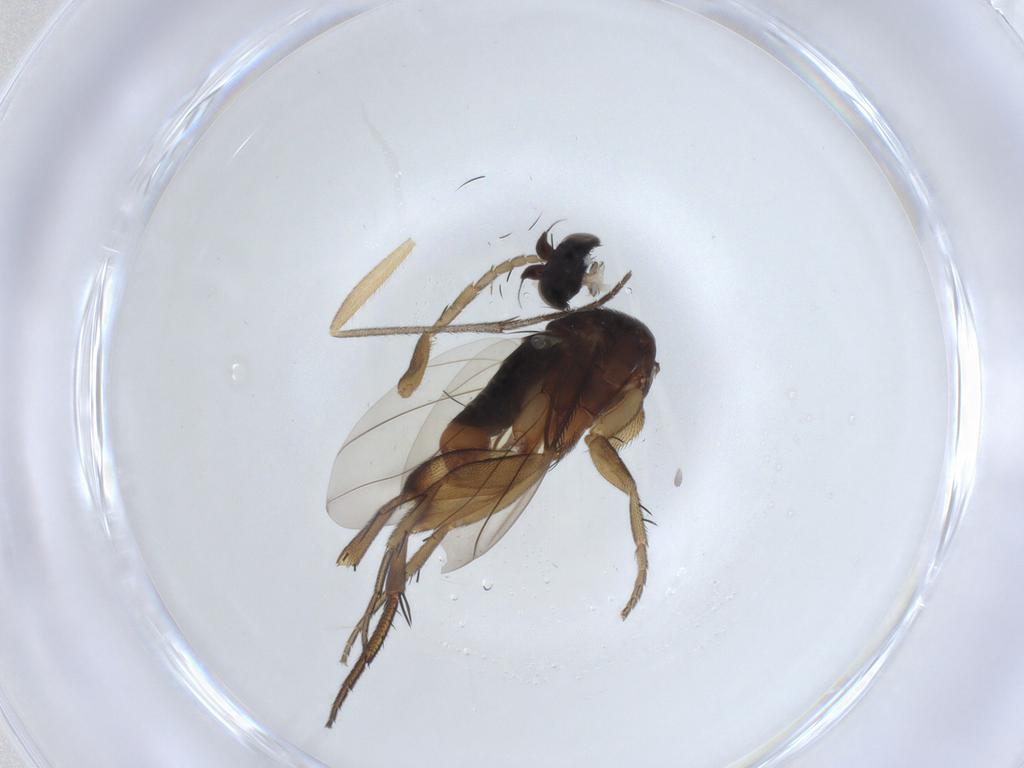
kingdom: Animalia
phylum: Arthropoda
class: Insecta
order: Diptera
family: Phoridae
